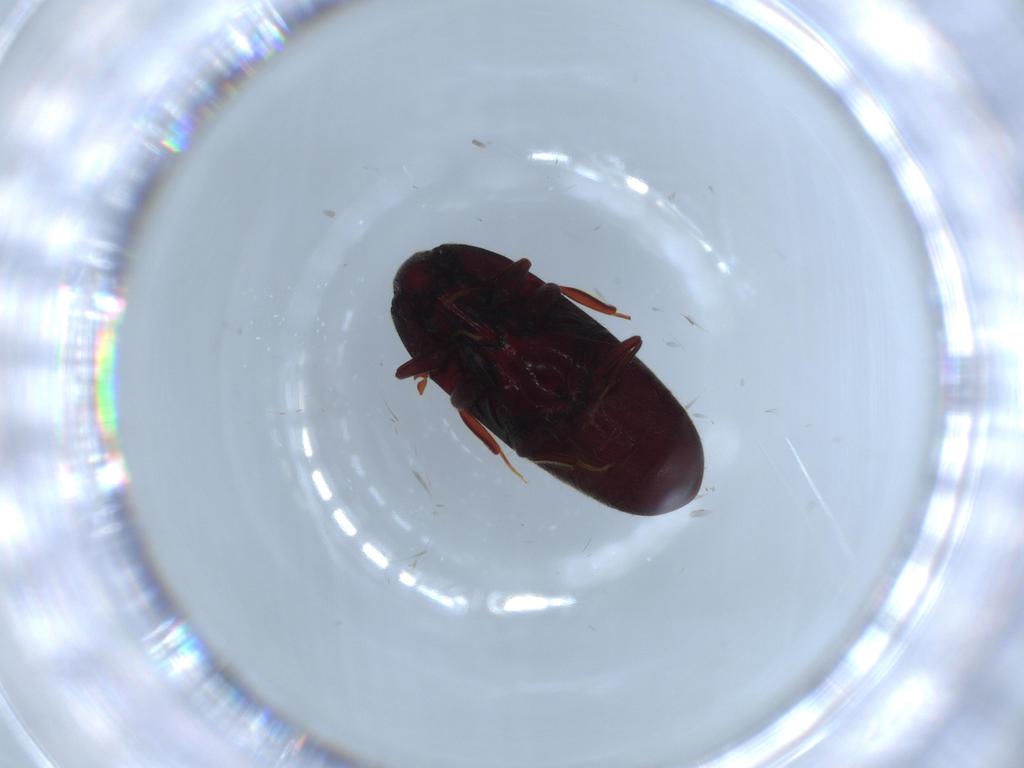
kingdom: Animalia
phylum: Arthropoda
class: Insecta
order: Coleoptera
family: Throscidae
